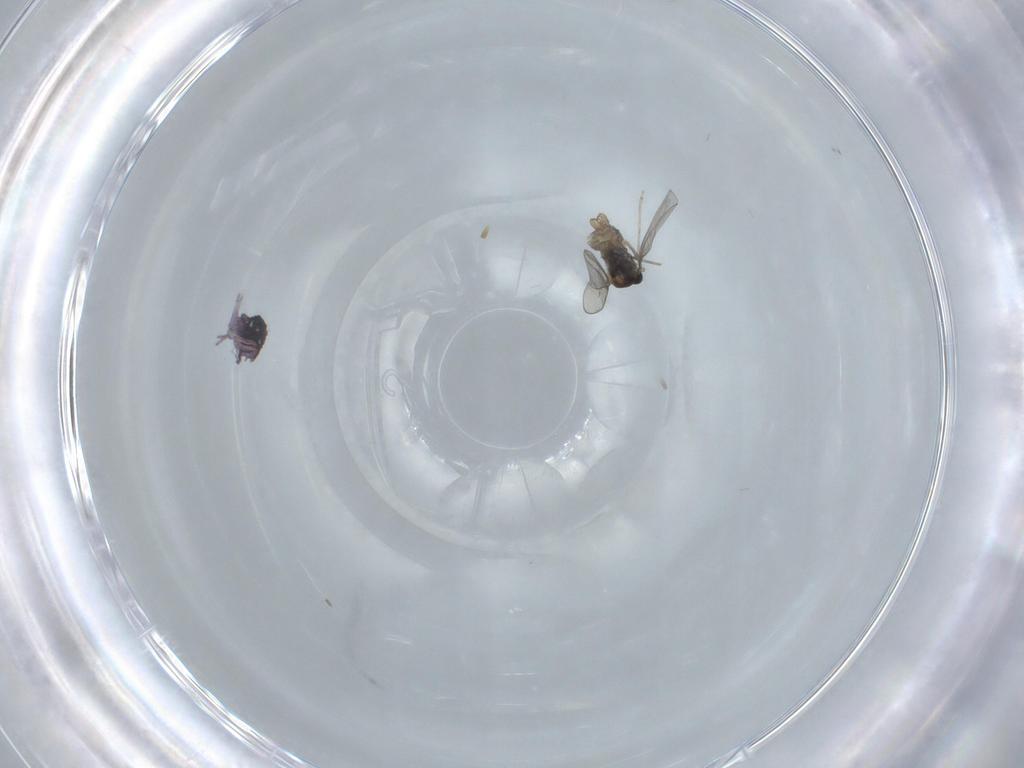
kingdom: Animalia
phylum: Arthropoda
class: Insecta
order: Diptera
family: Cecidomyiidae
